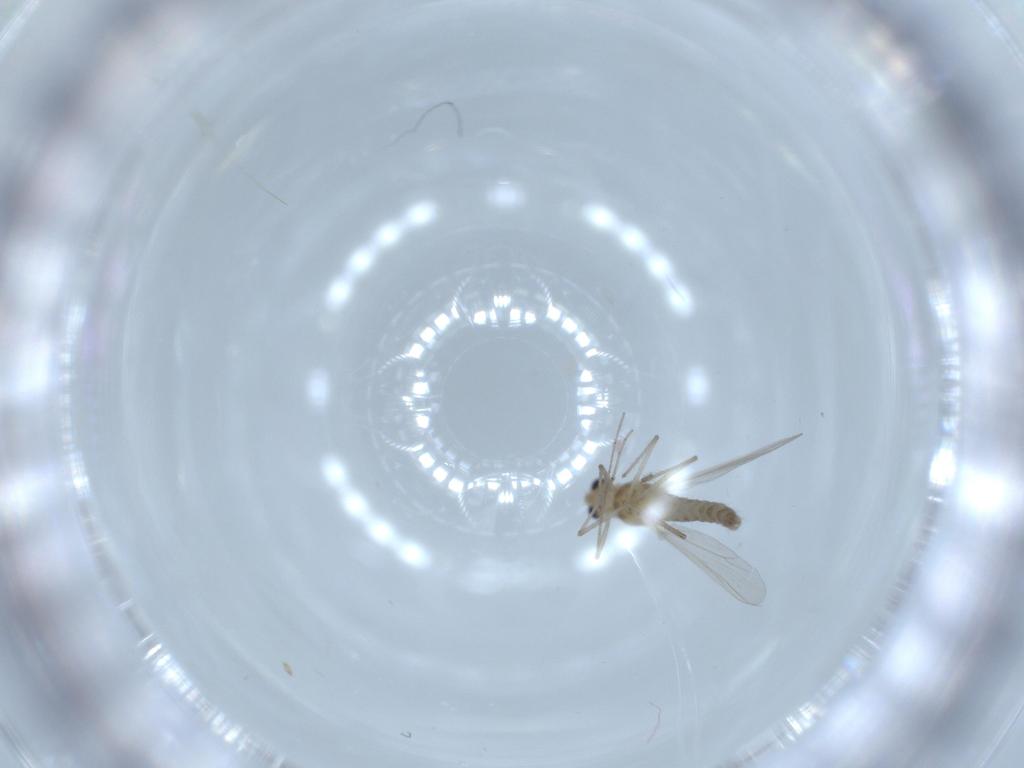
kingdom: Animalia
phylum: Arthropoda
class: Insecta
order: Diptera
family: Chironomidae
